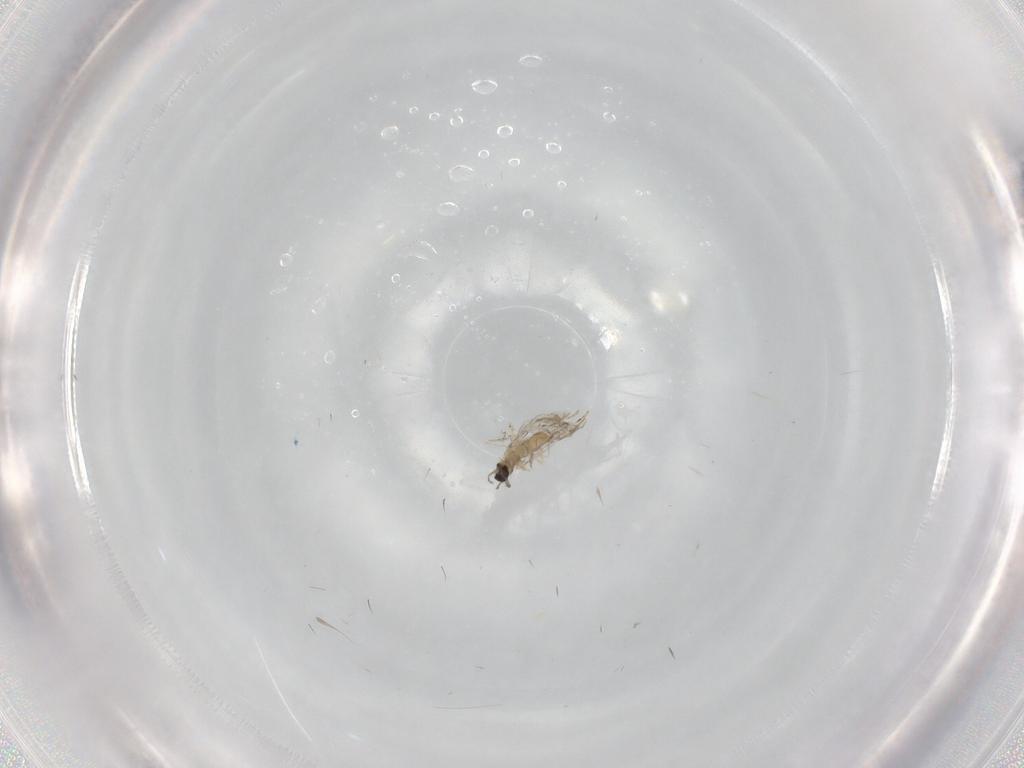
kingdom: Animalia
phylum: Arthropoda
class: Insecta
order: Diptera
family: Cecidomyiidae
